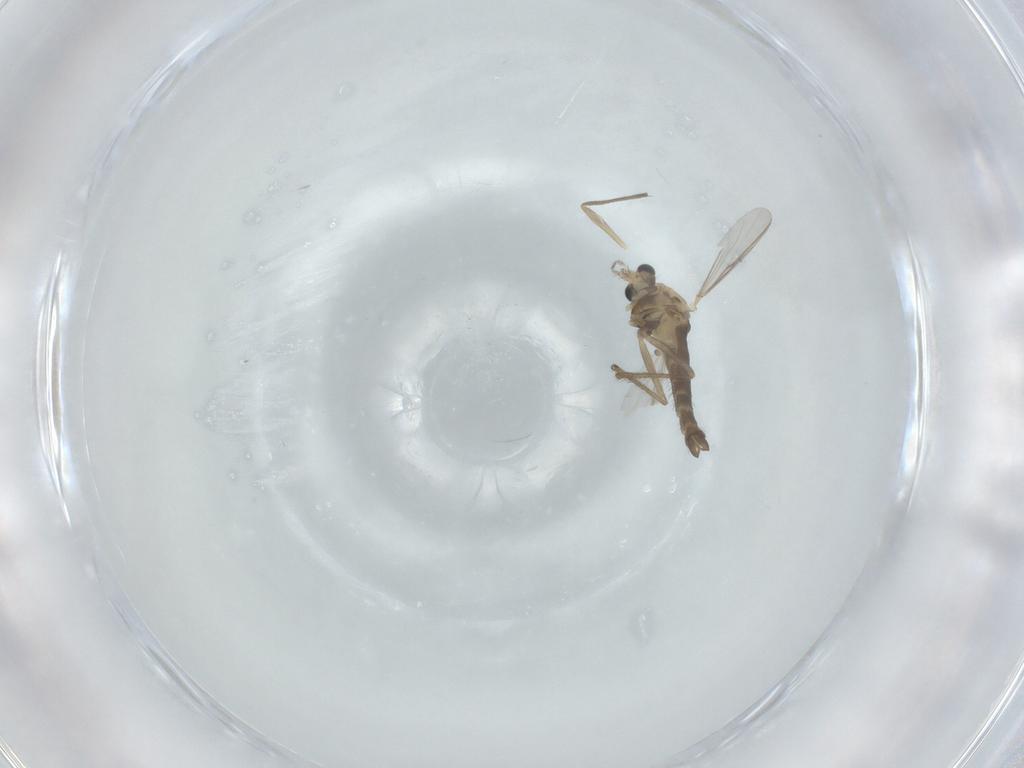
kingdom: Animalia
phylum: Arthropoda
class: Insecta
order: Diptera
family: Chironomidae
